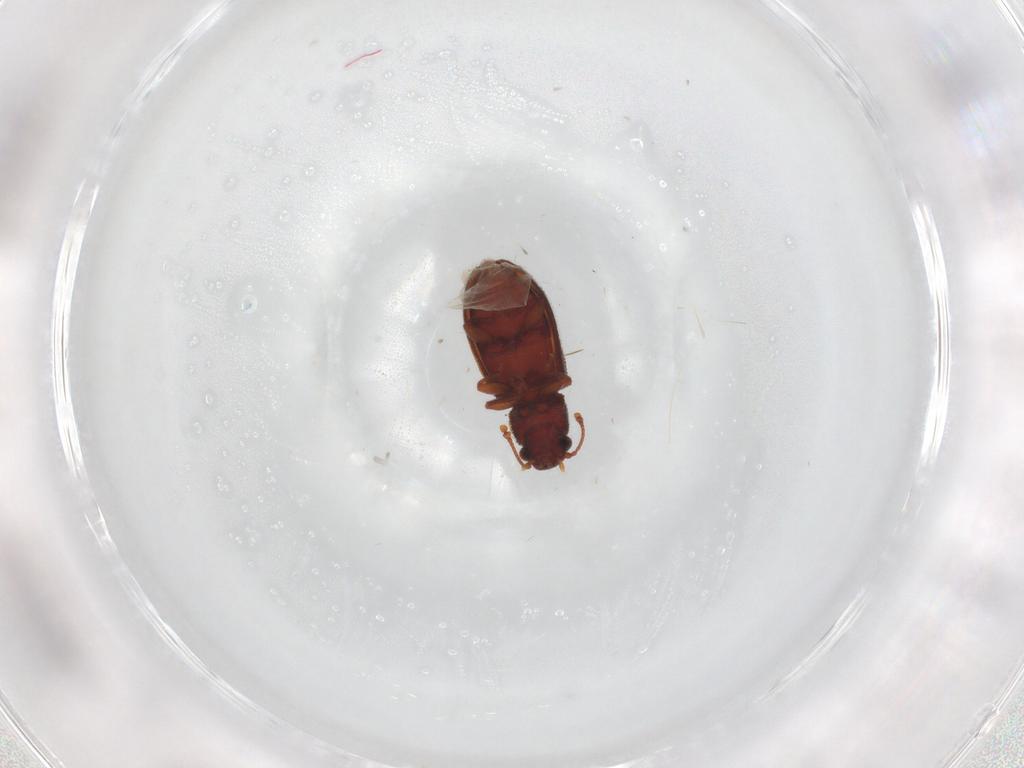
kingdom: Animalia
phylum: Arthropoda
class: Insecta
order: Coleoptera
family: Mycetophagidae
